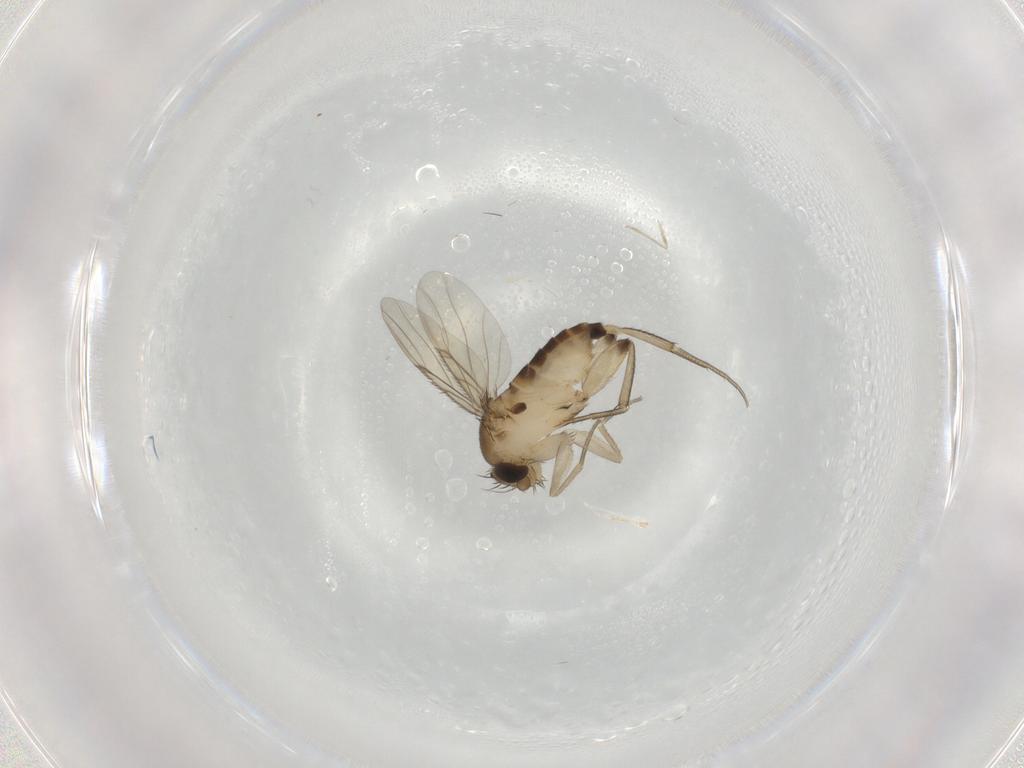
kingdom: Animalia
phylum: Arthropoda
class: Insecta
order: Diptera
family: Phoridae
